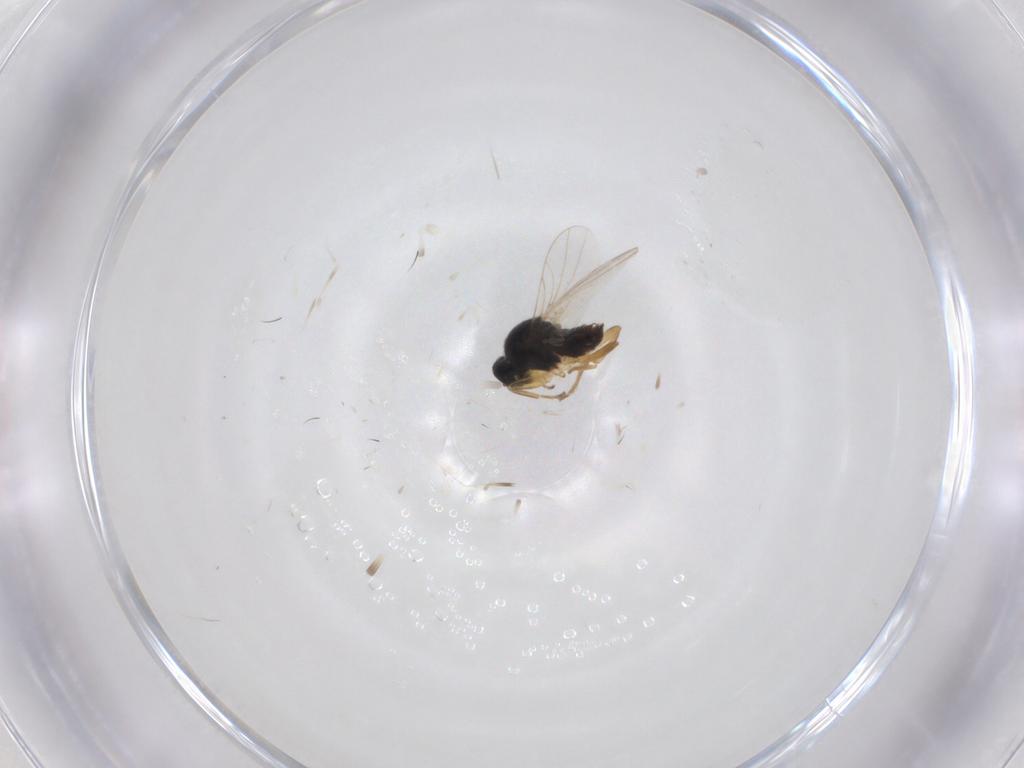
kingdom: Animalia
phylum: Arthropoda
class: Insecta
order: Diptera
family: Hybotidae
